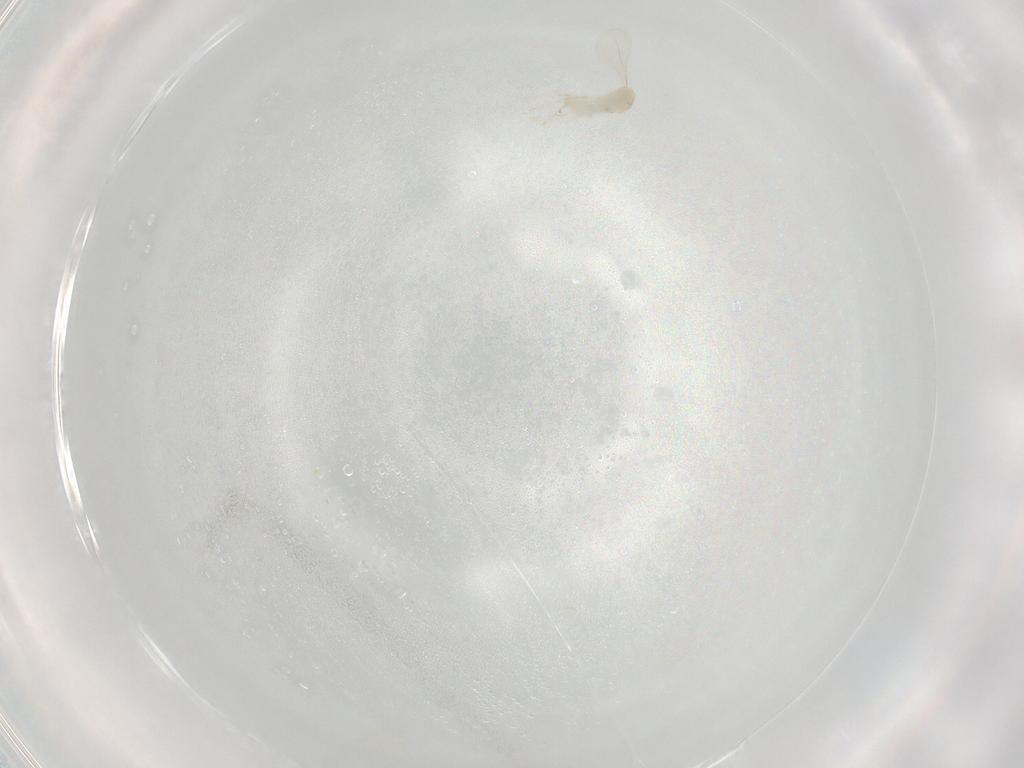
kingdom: Animalia
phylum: Arthropoda
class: Insecta
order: Diptera
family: Cecidomyiidae
